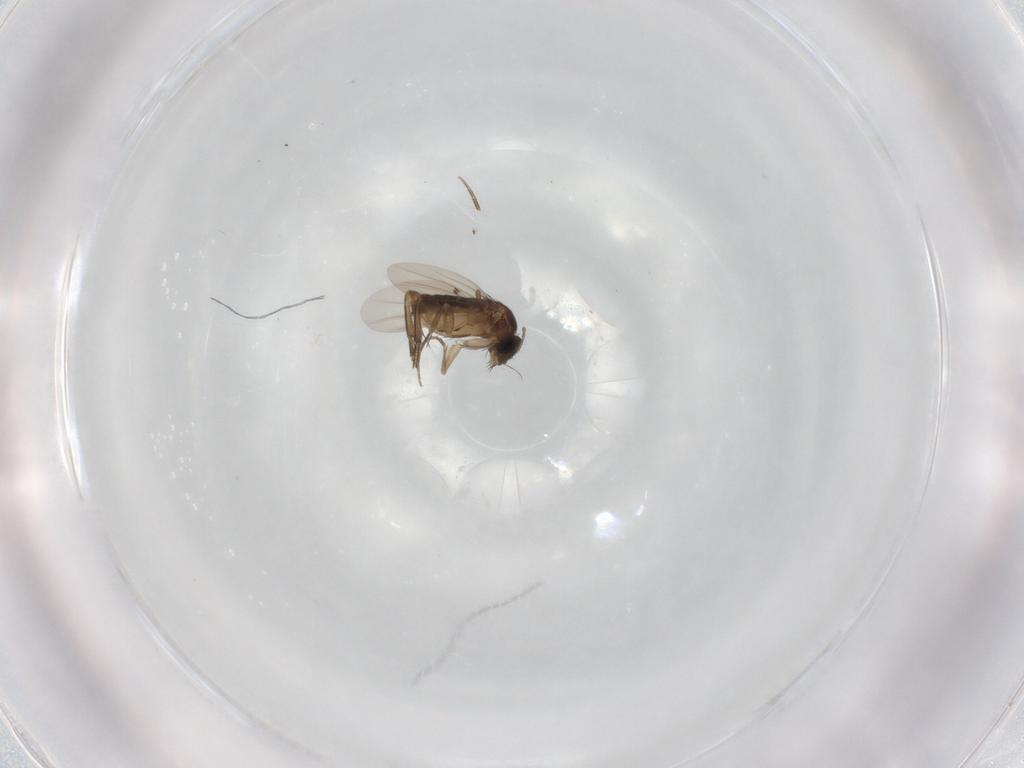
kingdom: Animalia
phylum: Arthropoda
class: Insecta
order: Diptera
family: Phoridae
